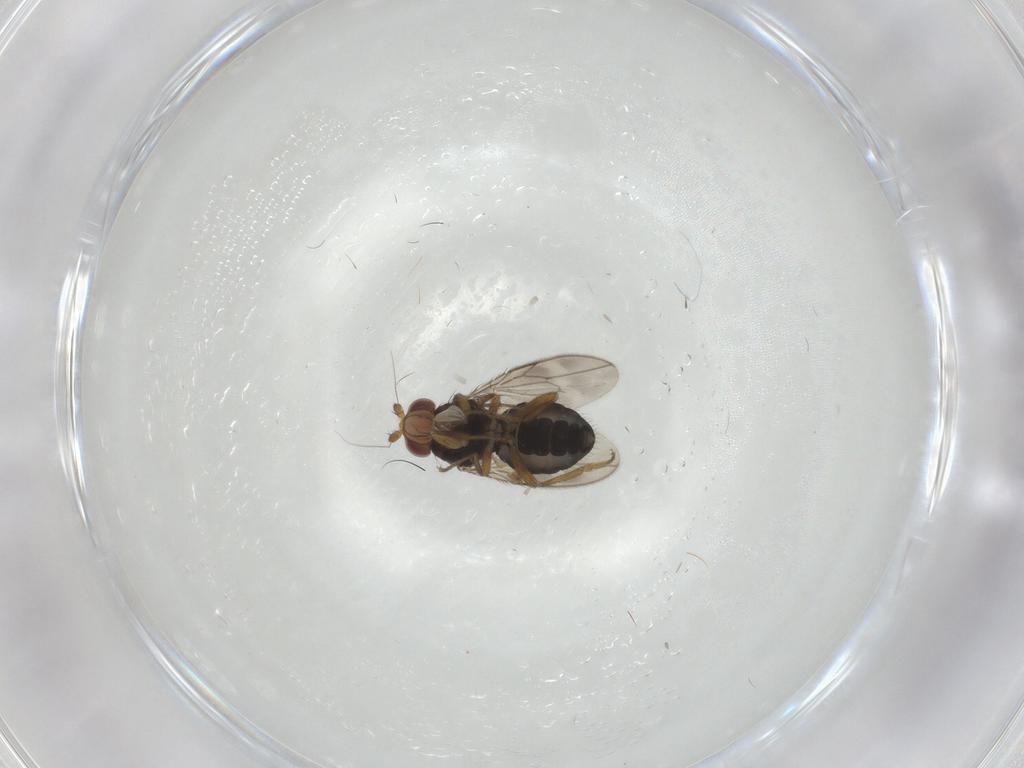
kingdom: Animalia
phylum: Arthropoda
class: Insecta
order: Diptera
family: Sphaeroceridae
